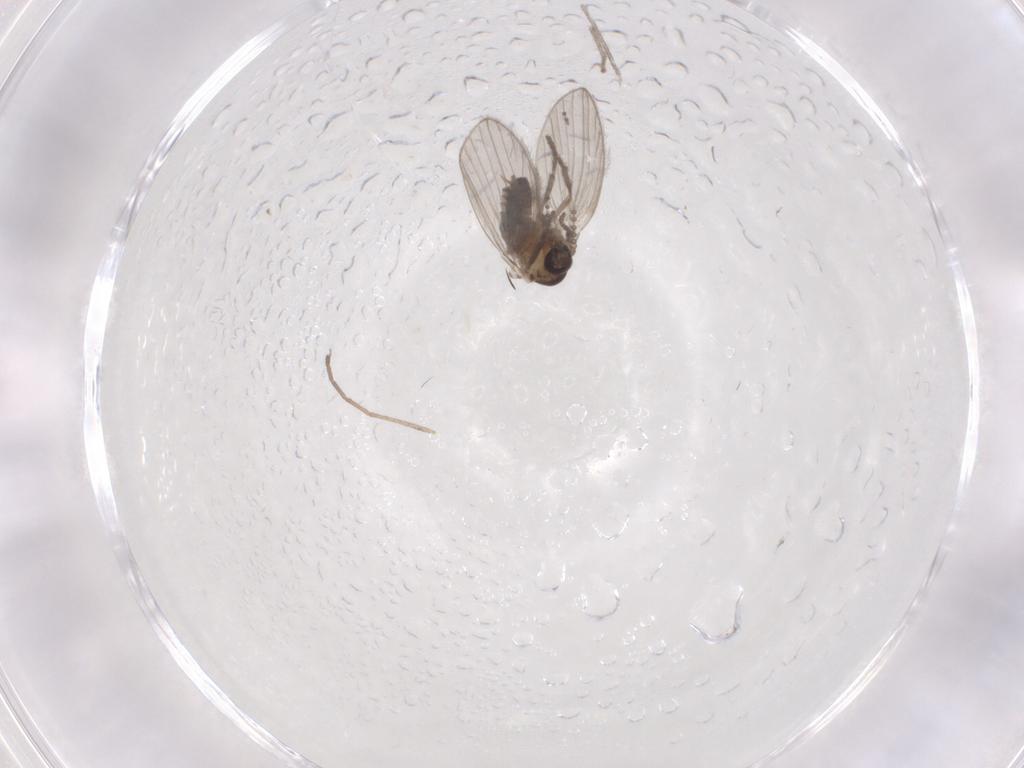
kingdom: Animalia
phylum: Arthropoda
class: Insecta
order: Diptera
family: Psychodidae
